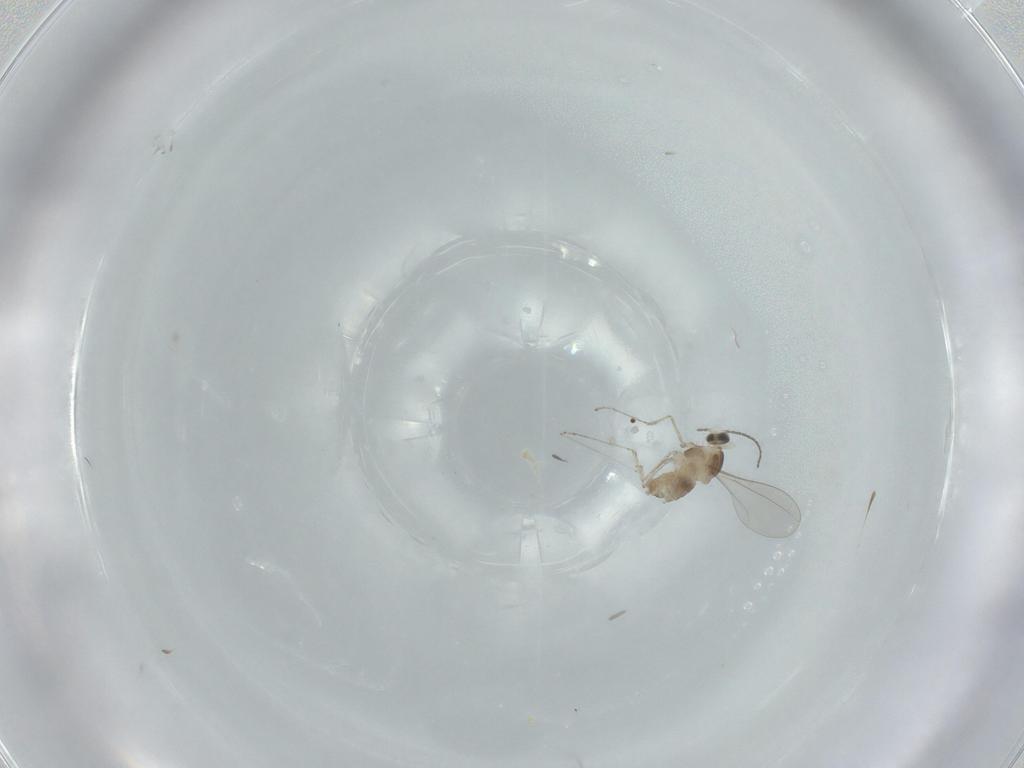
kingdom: Animalia
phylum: Arthropoda
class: Insecta
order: Diptera
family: Cecidomyiidae
